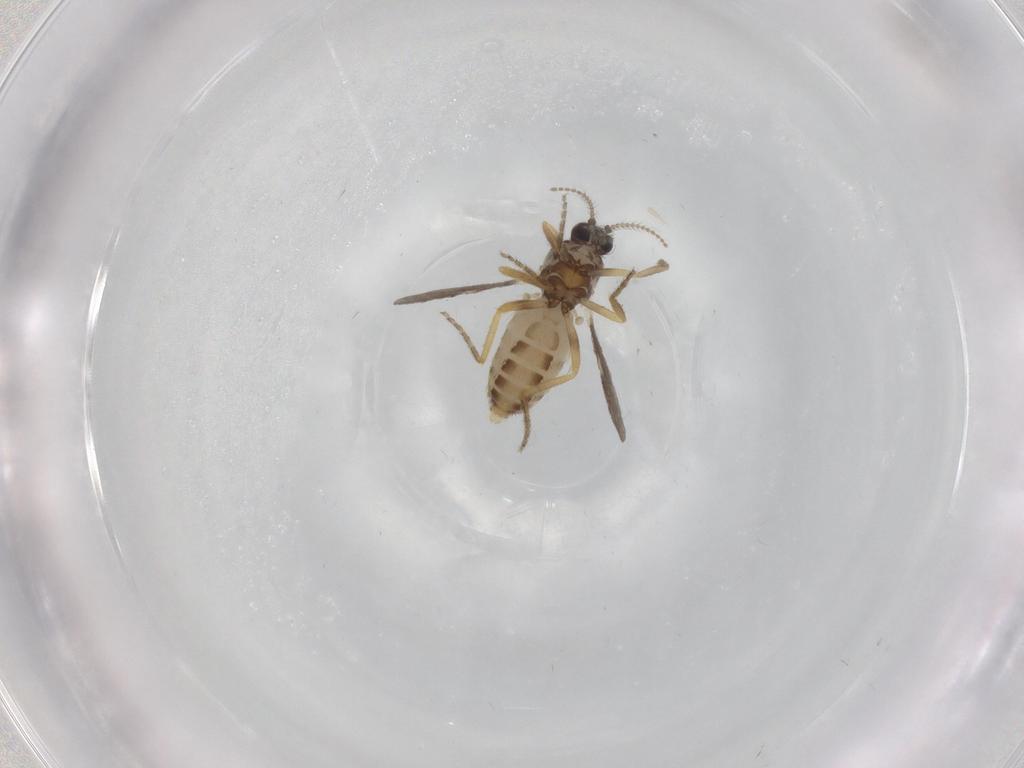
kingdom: Animalia
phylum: Arthropoda
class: Insecta
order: Diptera
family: Ceratopogonidae
